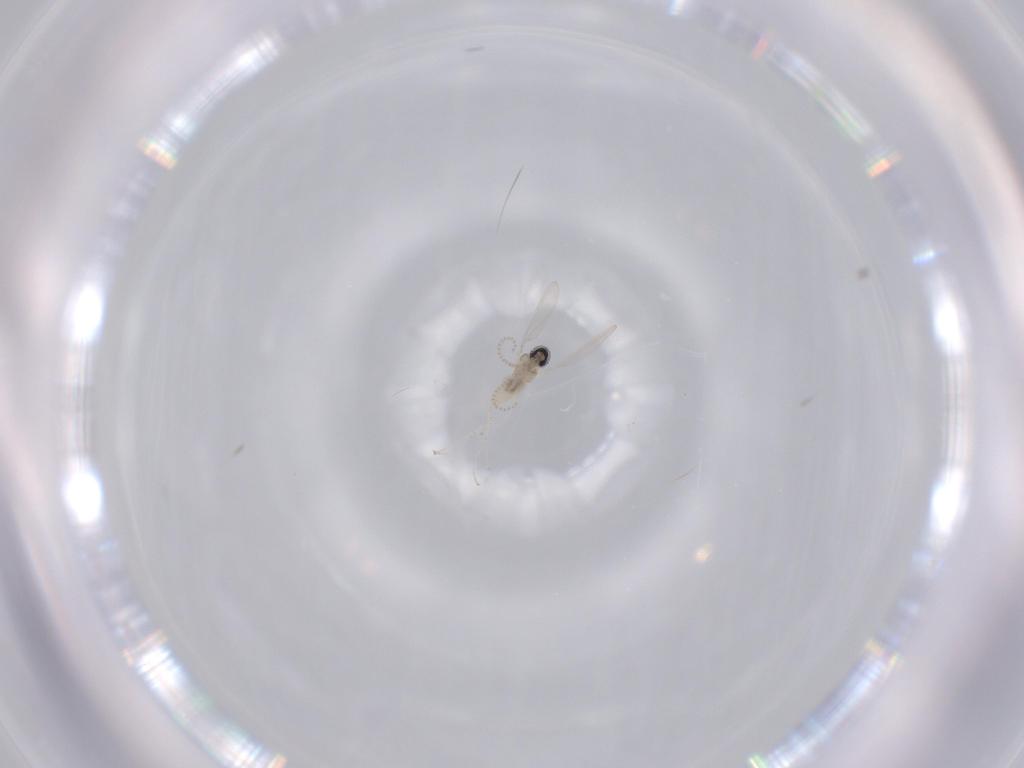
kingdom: Animalia
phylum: Arthropoda
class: Insecta
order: Diptera
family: Cecidomyiidae
